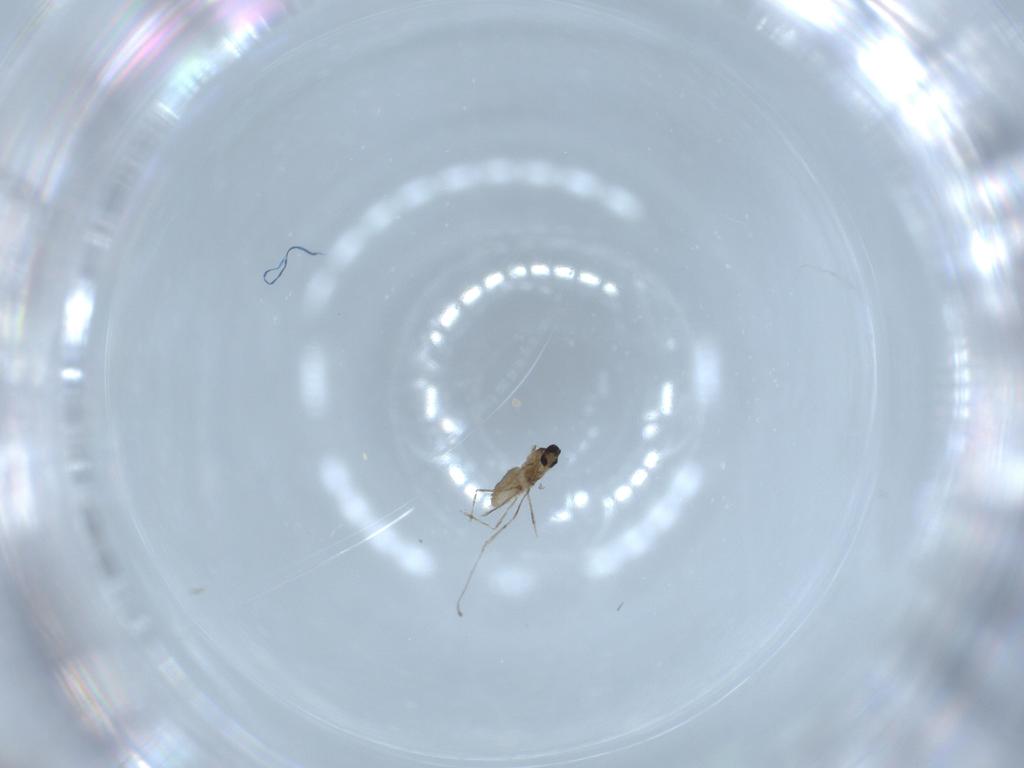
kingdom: Animalia
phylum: Arthropoda
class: Insecta
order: Diptera
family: Cecidomyiidae
